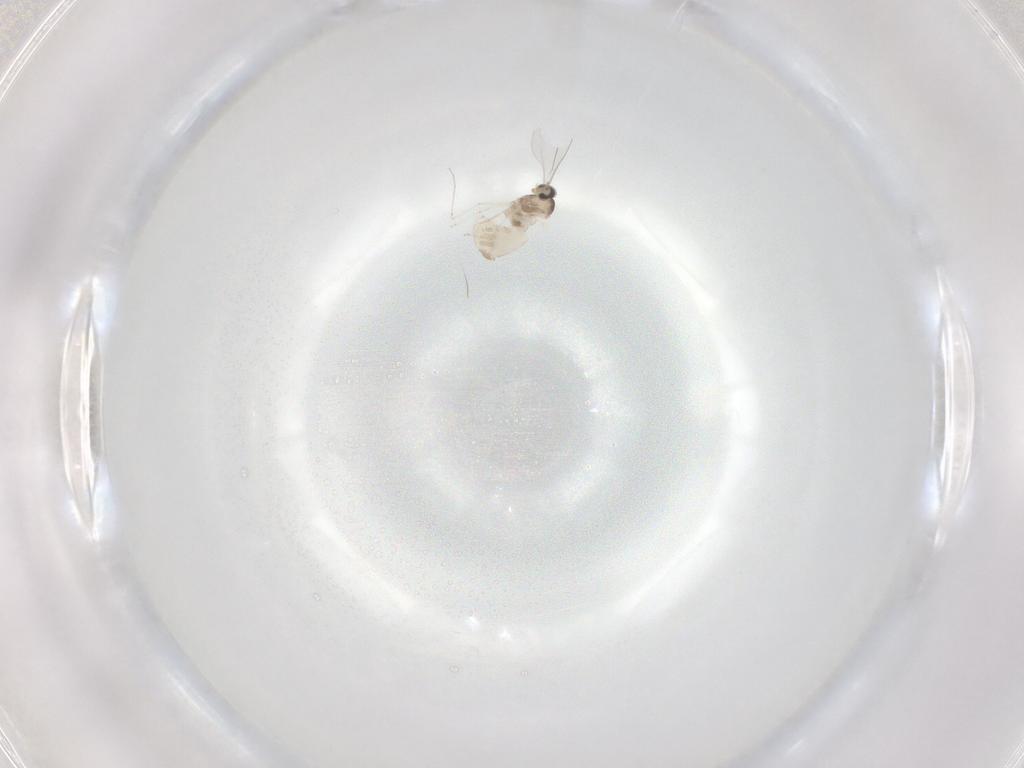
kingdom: Animalia
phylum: Arthropoda
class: Insecta
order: Diptera
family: Cecidomyiidae
